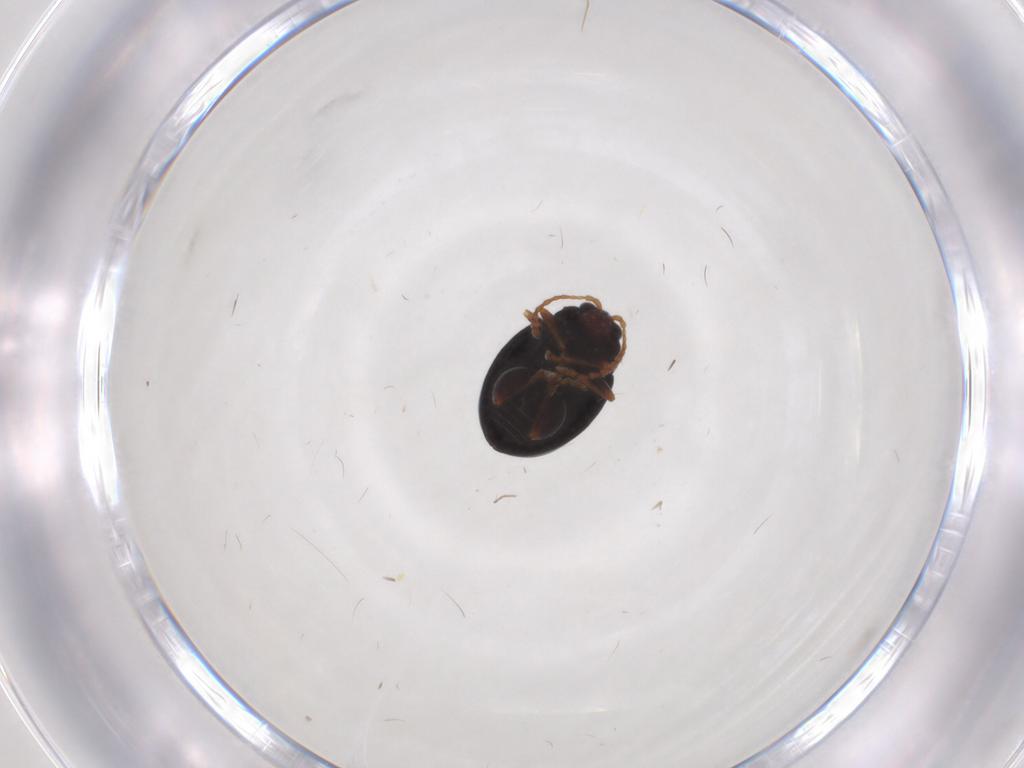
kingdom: Animalia
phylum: Arthropoda
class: Insecta
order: Coleoptera
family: Chrysomelidae
